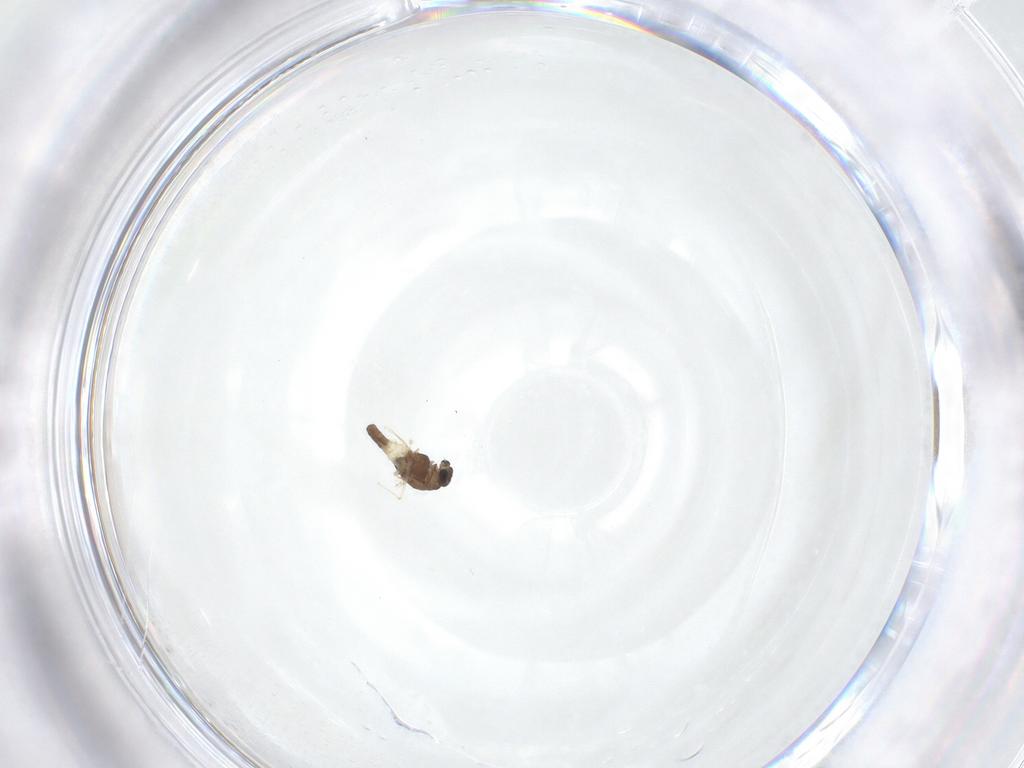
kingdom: Animalia
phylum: Arthropoda
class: Insecta
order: Diptera
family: Chironomidae
